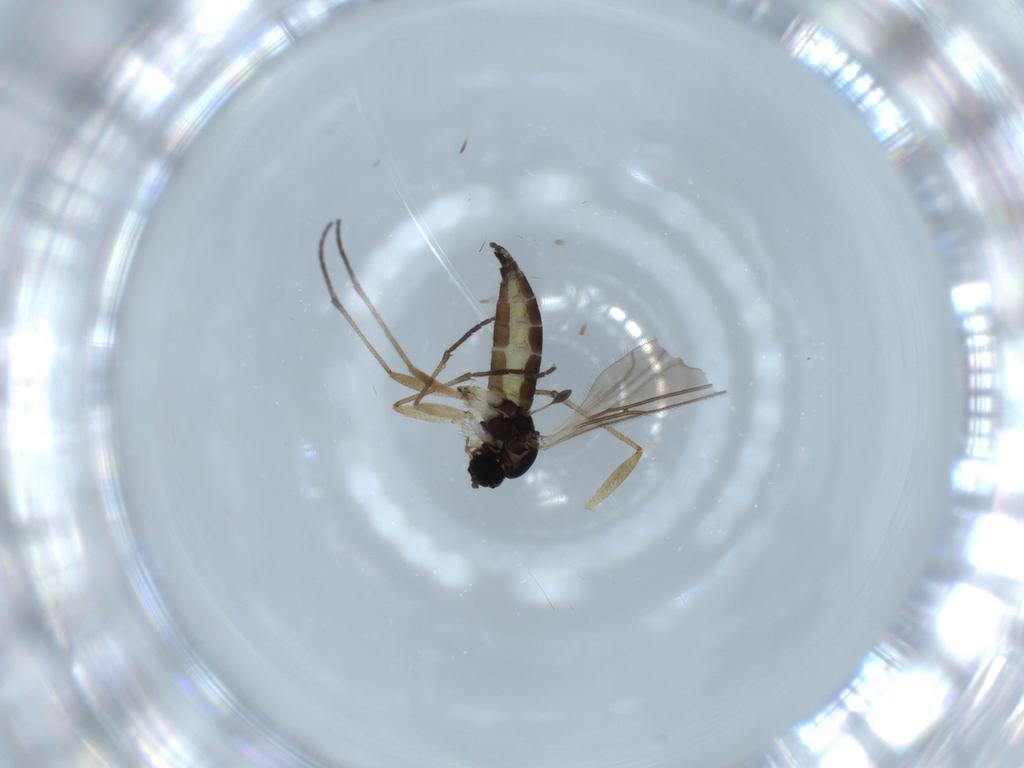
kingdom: Animalia
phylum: Arthropoda
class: Insecta
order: Diptera
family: Sciaridae
